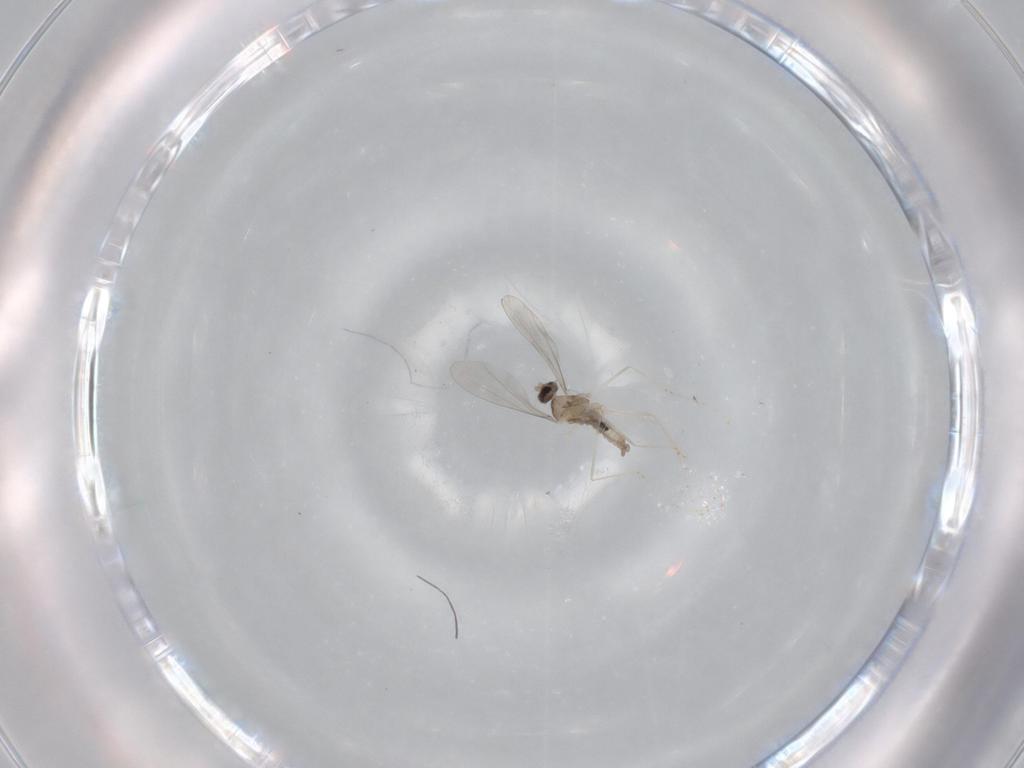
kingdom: Animalia
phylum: Arthropoda
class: Insecta
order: Diptera
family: Cecidomyiidae
